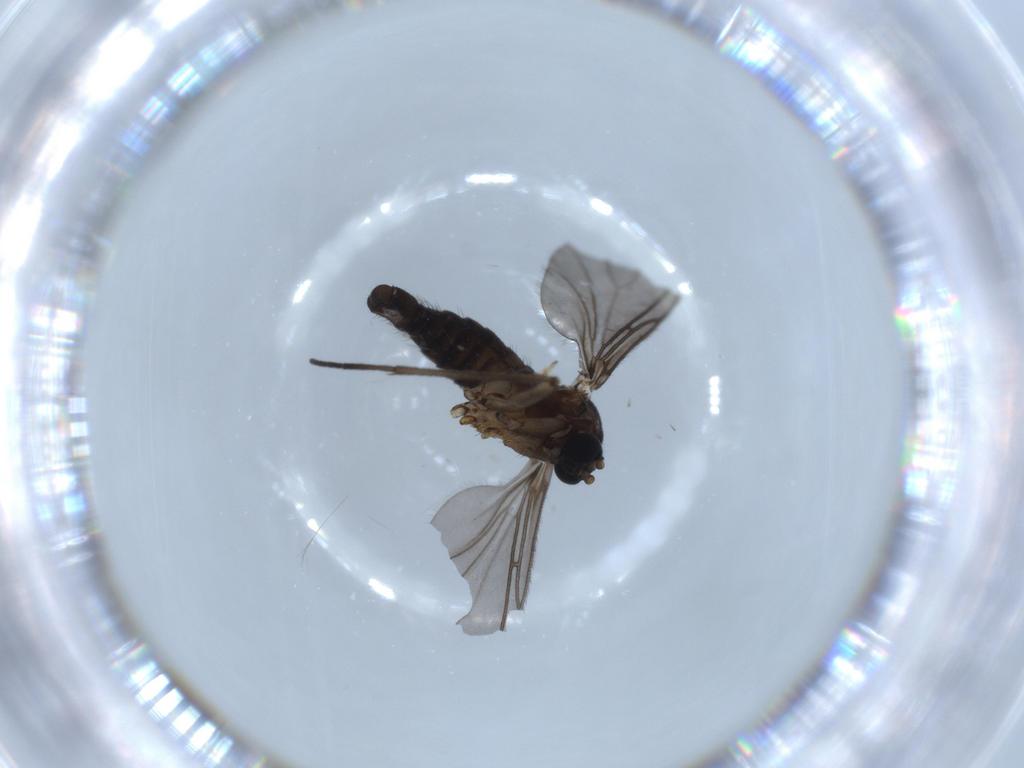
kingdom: Animalia
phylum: Arthropoda
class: Insecta
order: Diptera
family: Sciaridae
